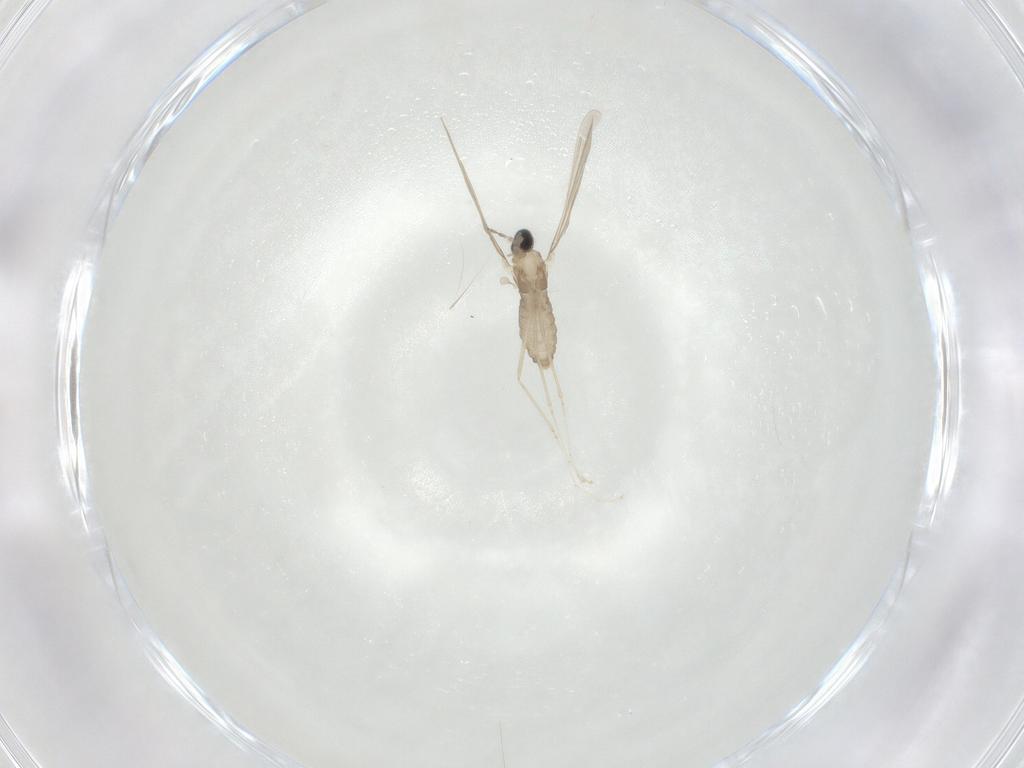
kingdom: Animalia
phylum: Arthropoda
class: Insecta
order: Diptera
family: Cecidomyiidae
